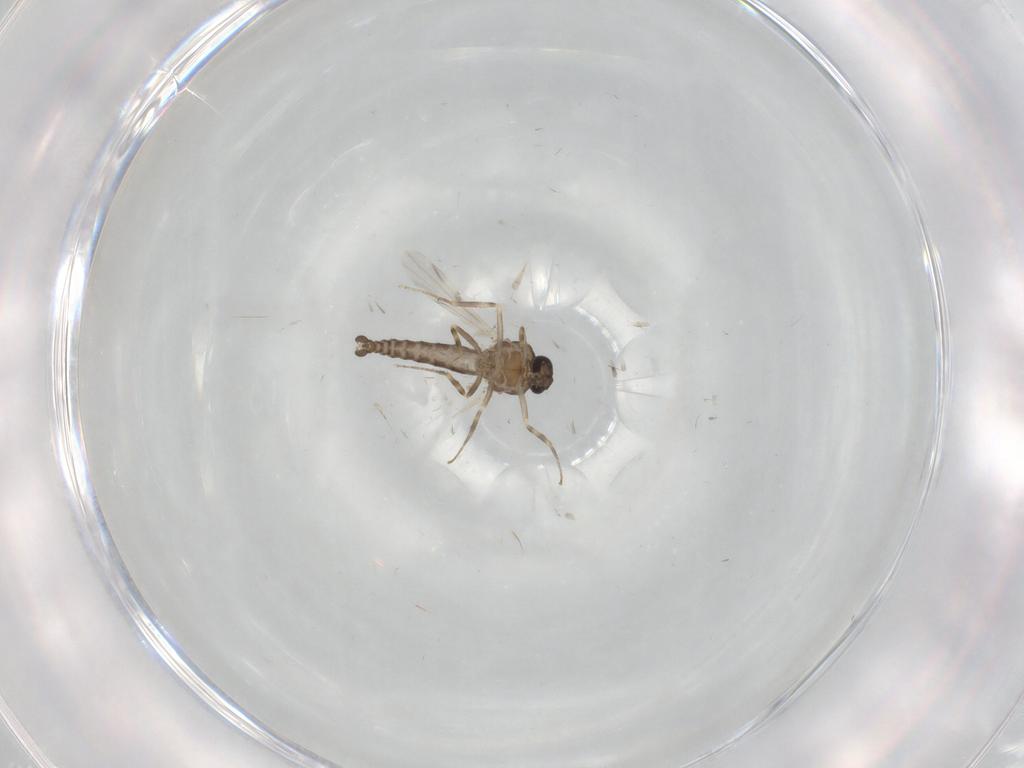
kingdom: Animalia
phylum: Arthropoda
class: Insecta
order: Diptera
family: Ceratopogonidae
